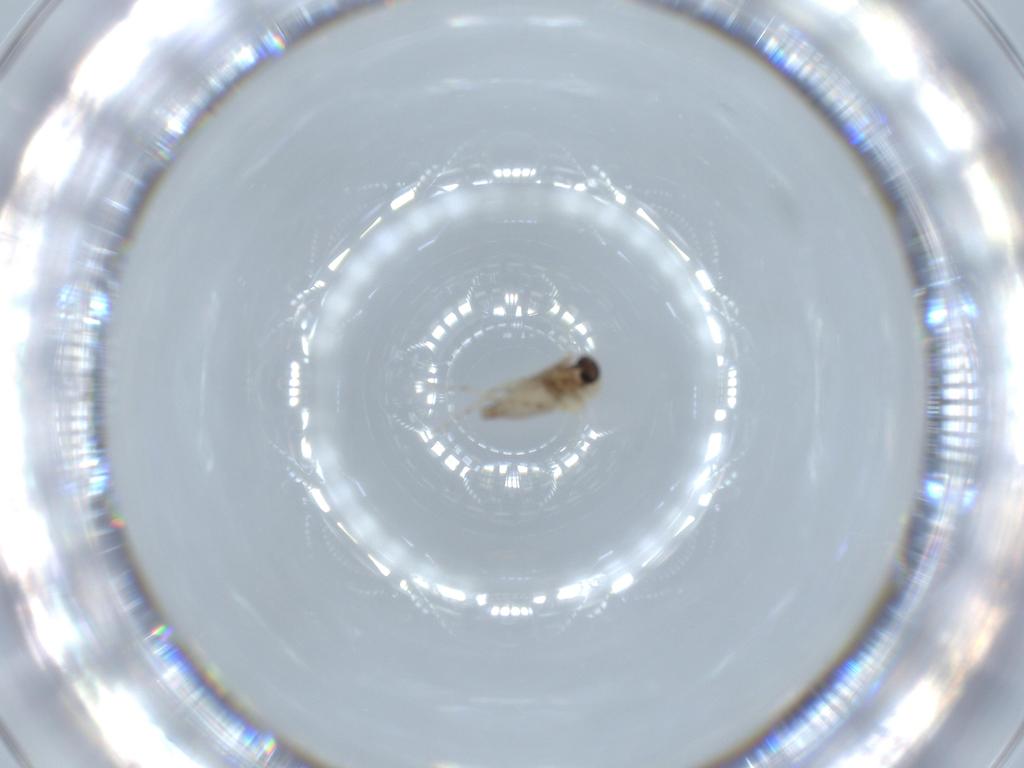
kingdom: Animalia
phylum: Arthropoda
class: Insecta
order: Diptera
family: Ceratopogonidae
